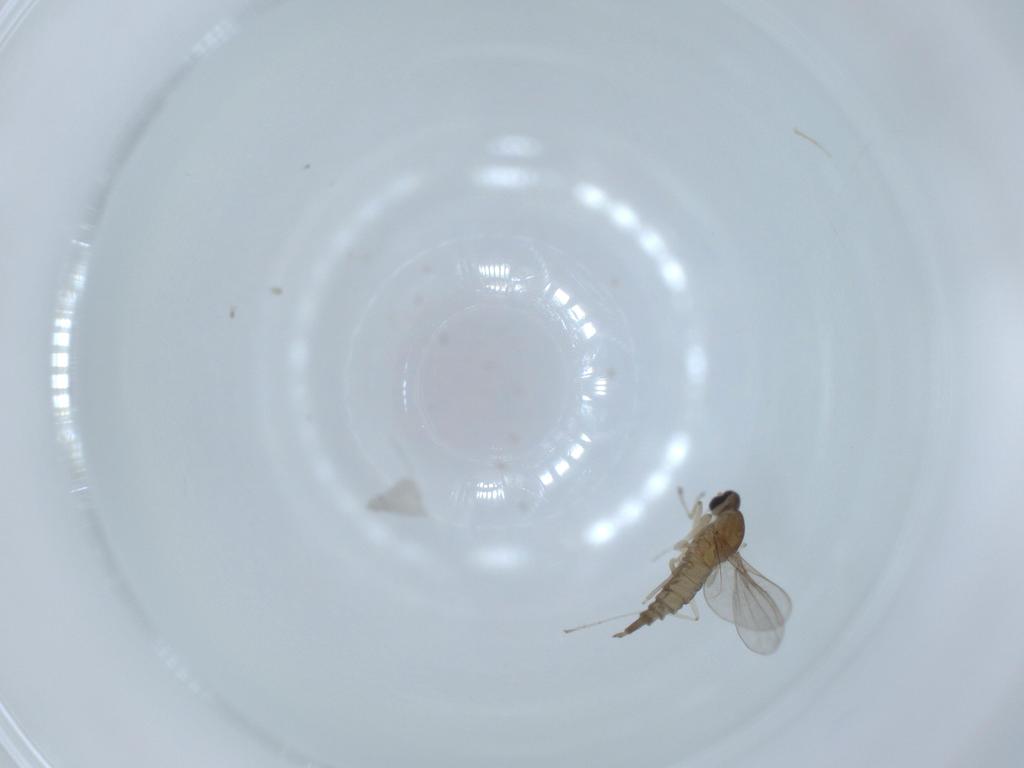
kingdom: Animalia
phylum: Arthropoda
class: Insecta
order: Diptera
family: Cecidomyiidae
